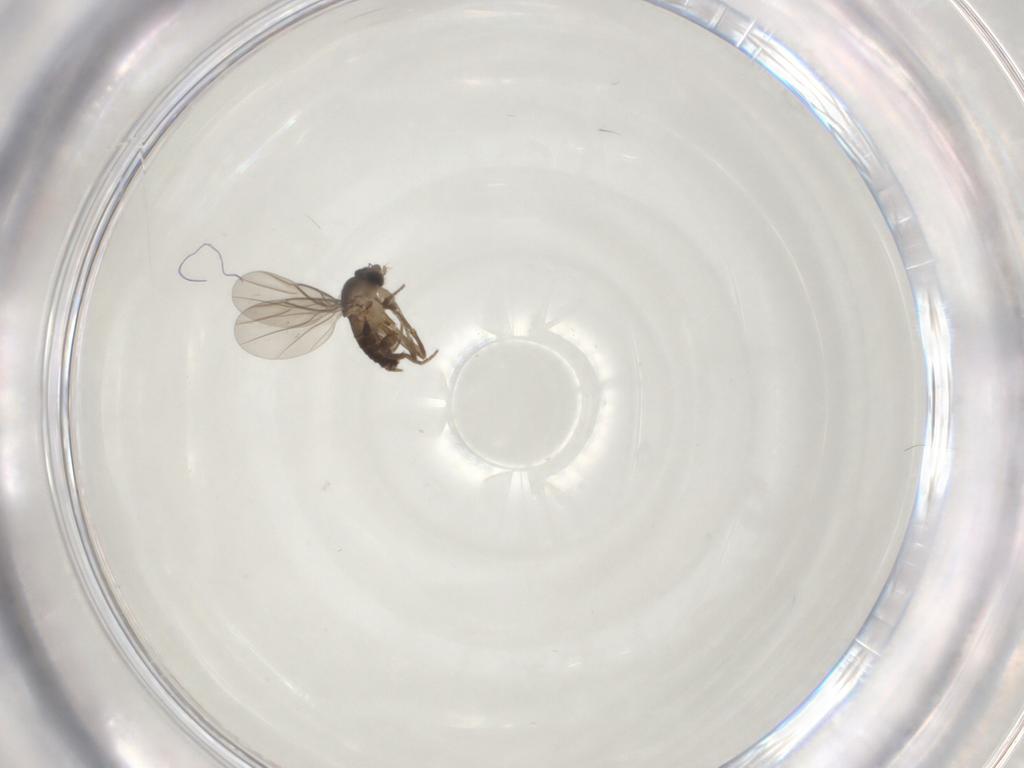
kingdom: Animalia
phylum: Arthropoda
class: Insecta
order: Diptera
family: Phoridae
